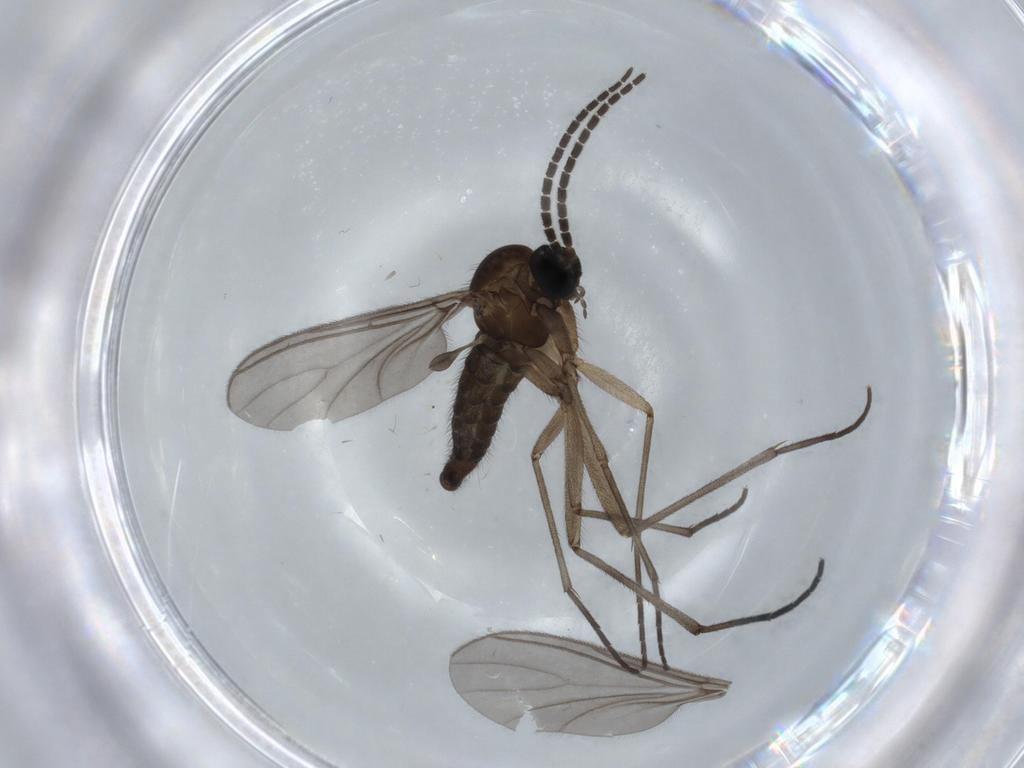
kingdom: Animalia
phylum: Arthropoda
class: Insecta
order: Diptera
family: Sciaridae
